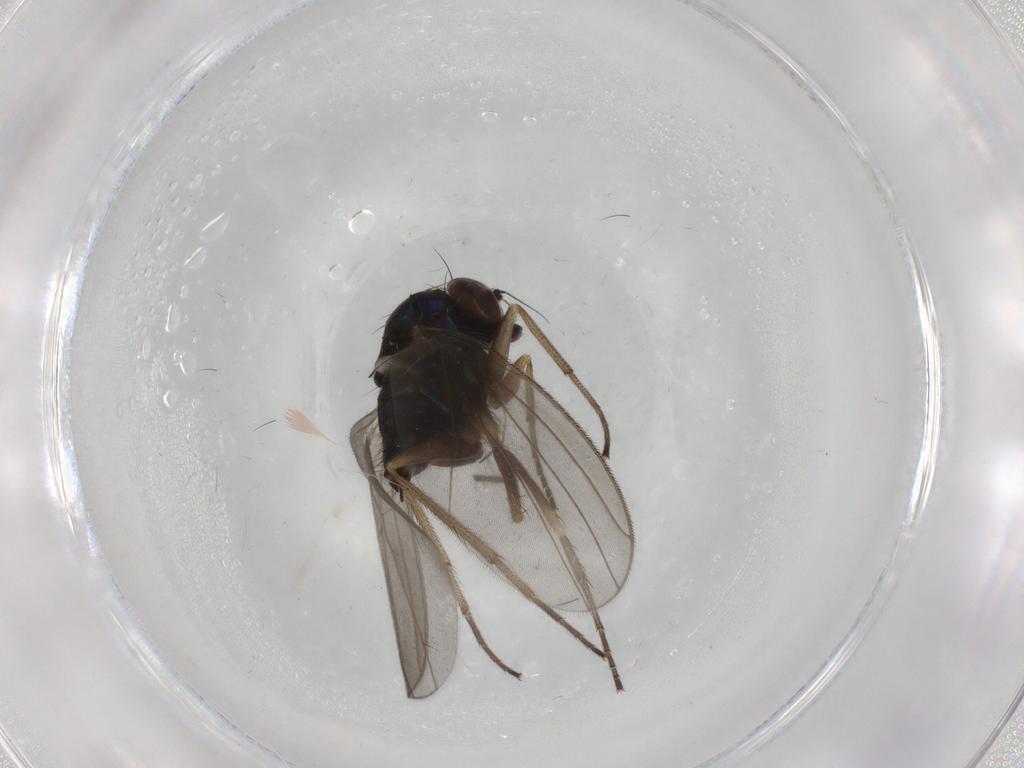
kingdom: Animalia
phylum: Arthropoda
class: Insecta
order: Diptera
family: Dolichopodidae
